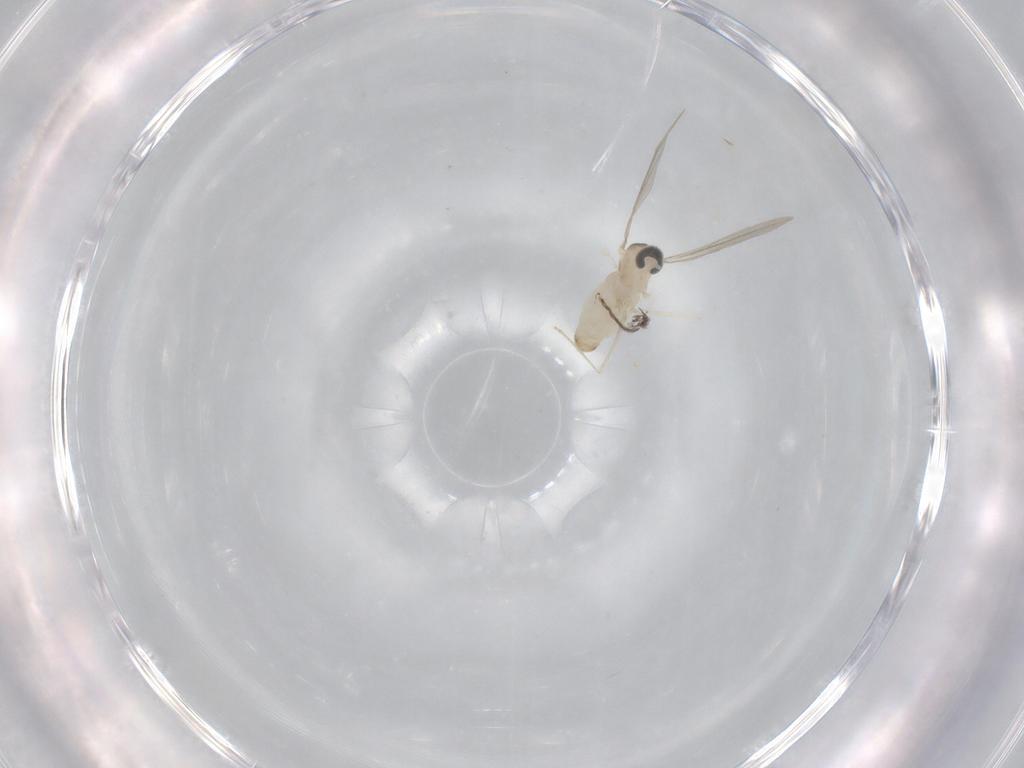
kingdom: Animalia
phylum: Arthropoda
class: Insecta
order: Diptera
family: Cecidomyiidae
